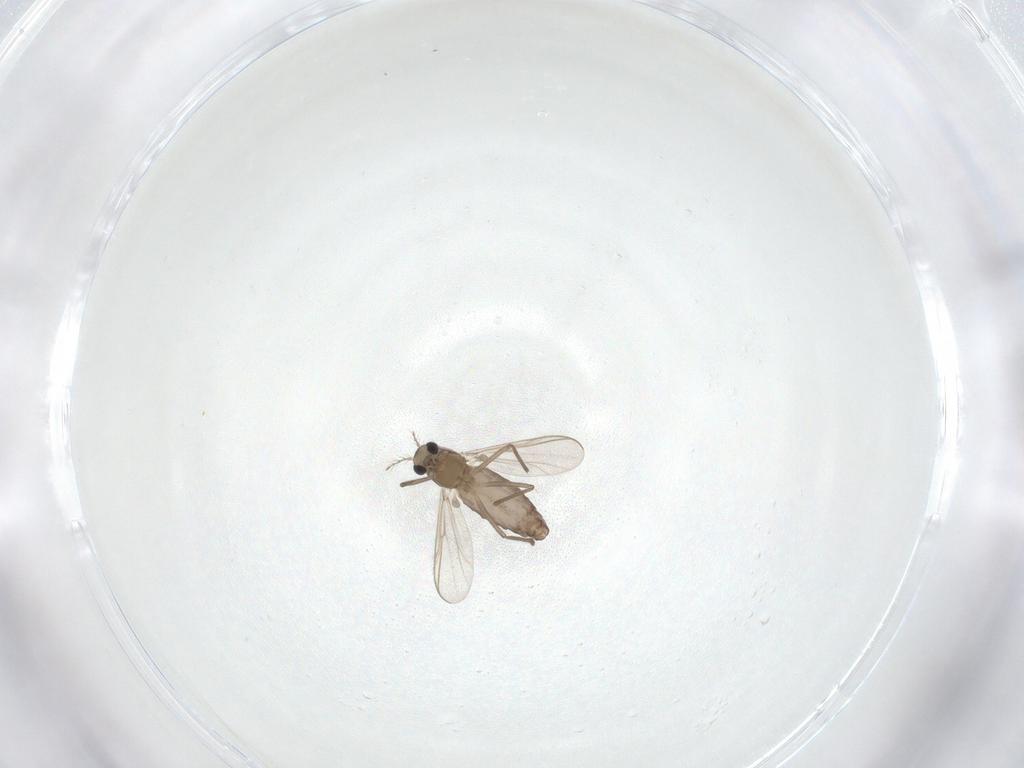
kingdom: Animalia
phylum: Arthropoda
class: Insecta
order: Diptera
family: Chironomidae
